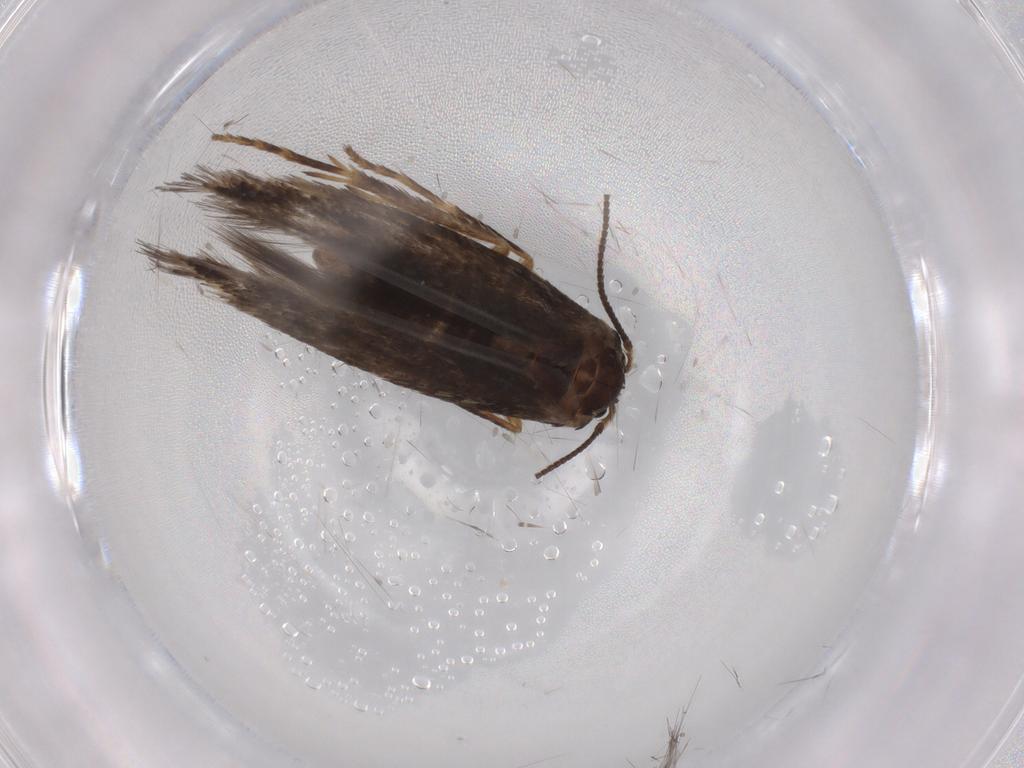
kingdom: Animalia
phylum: Arthropoda
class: Insecta
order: Lepidoptera
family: Nepticulidae
